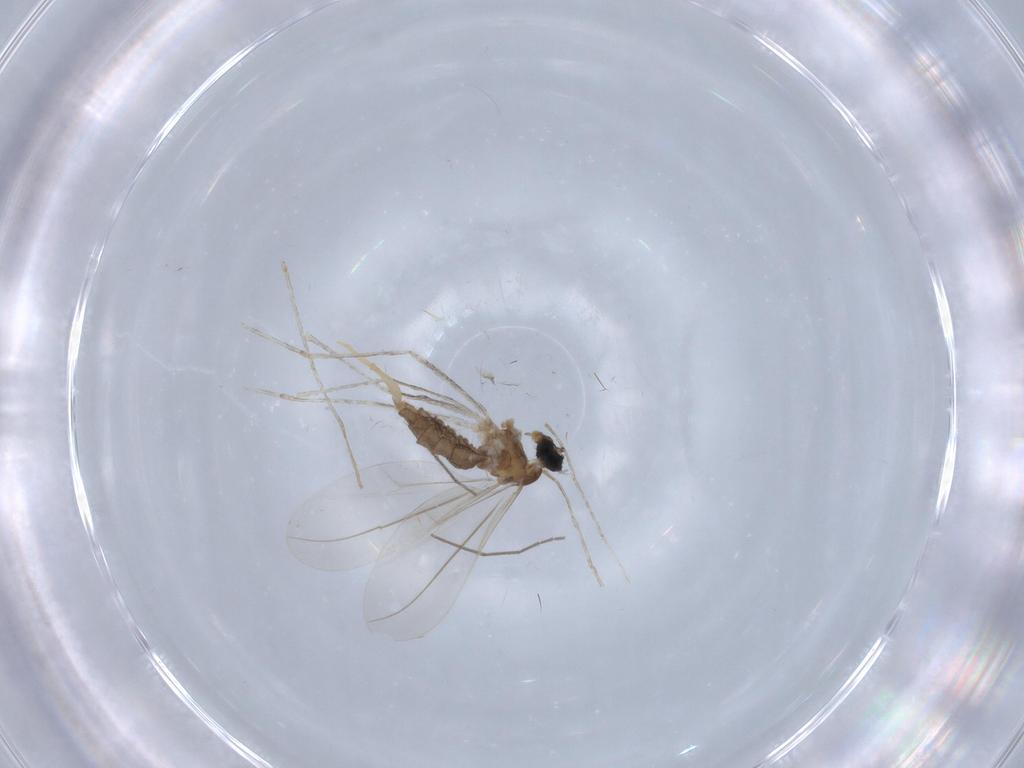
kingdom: Animalia
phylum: Arthropoda
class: Insecta
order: Diptera
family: Cecidomyiidae
